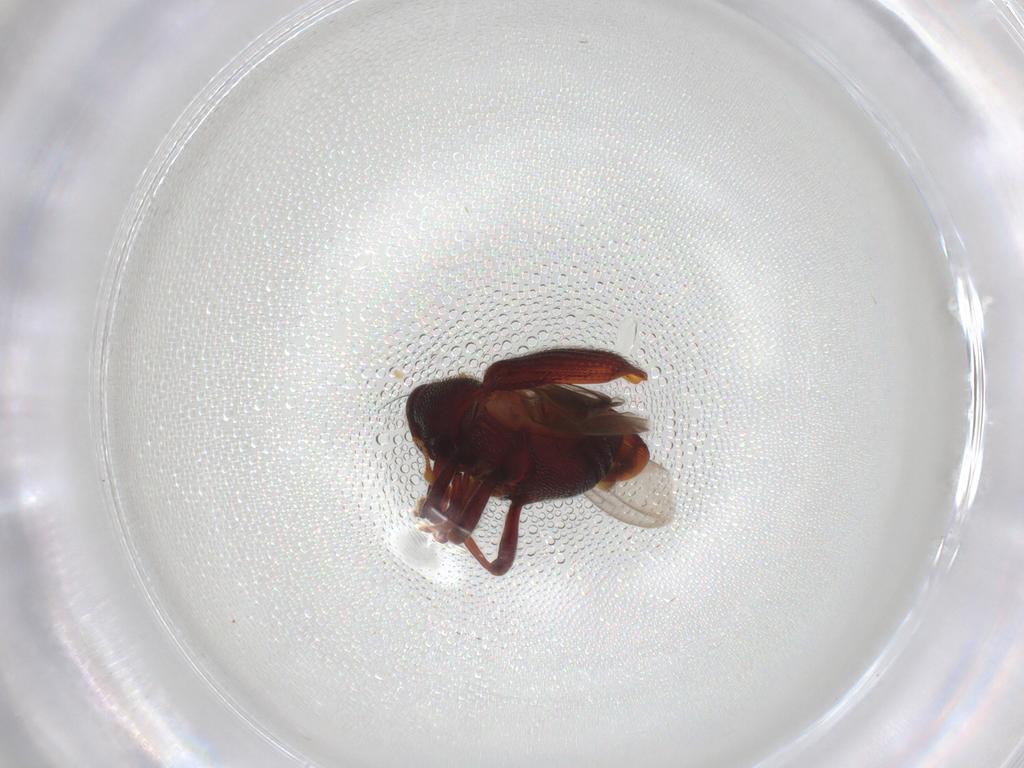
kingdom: Animalia
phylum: Arthropoda
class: Insecta
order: Coleoptera
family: Curculionidae
